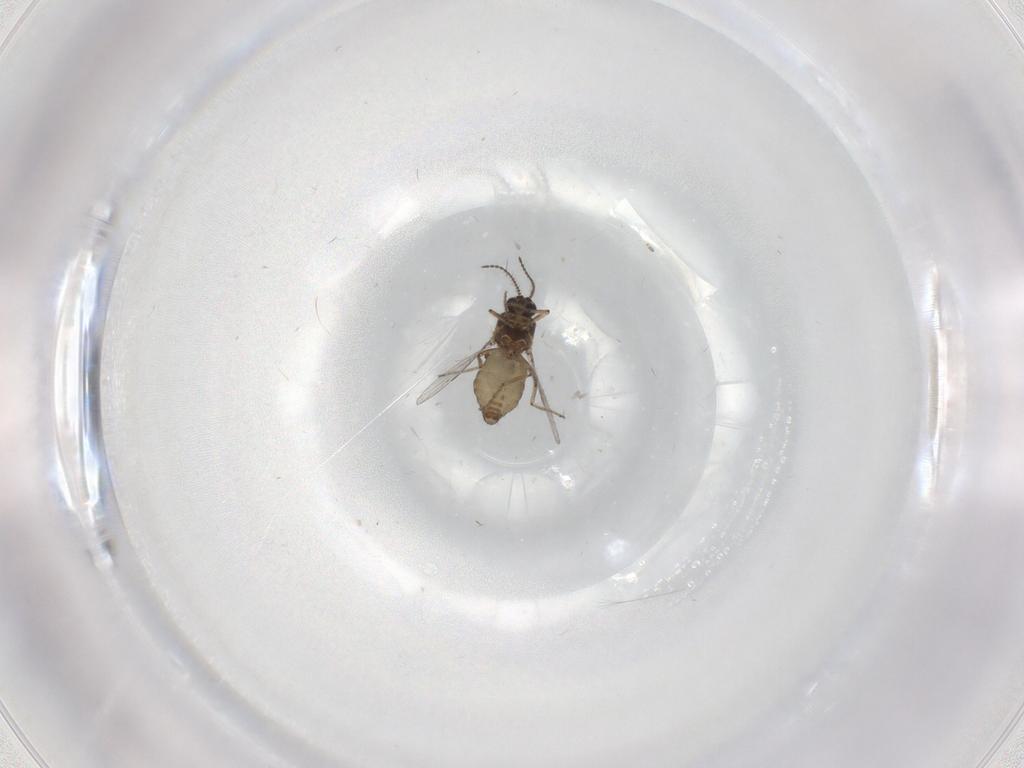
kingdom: Animalia
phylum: Arthropoda
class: Insecta
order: Diptera
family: Ceratopogonidae
